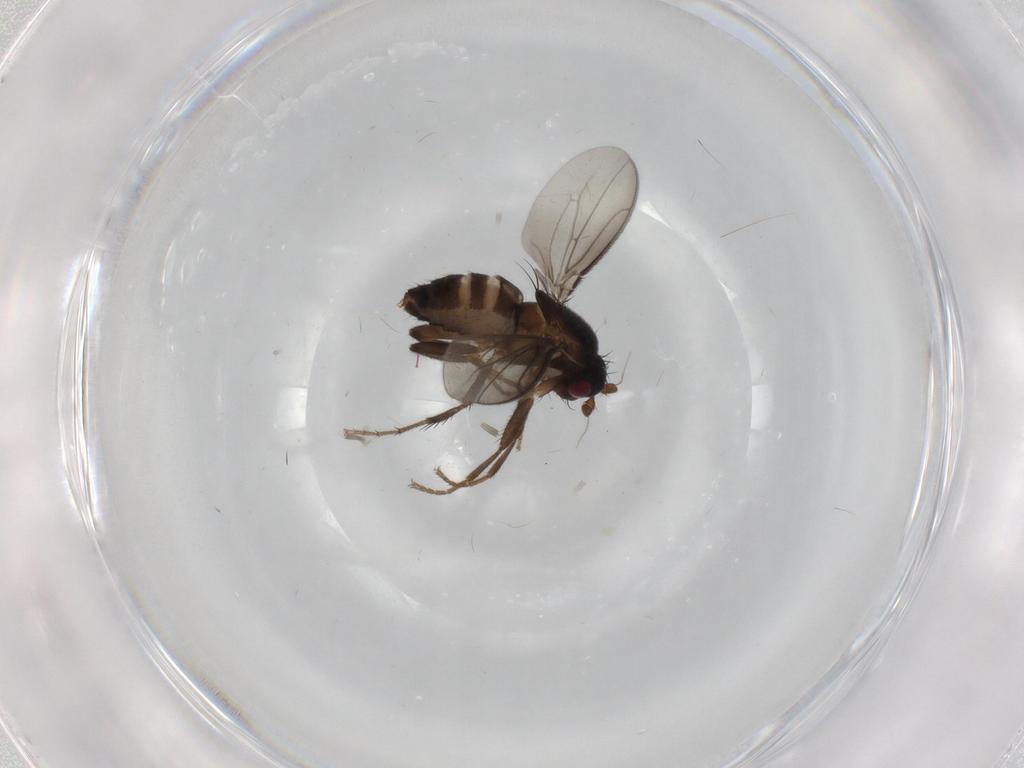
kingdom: Animalia
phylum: Arthropoda
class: Insecta
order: Diptera
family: Sphaeroceridae
